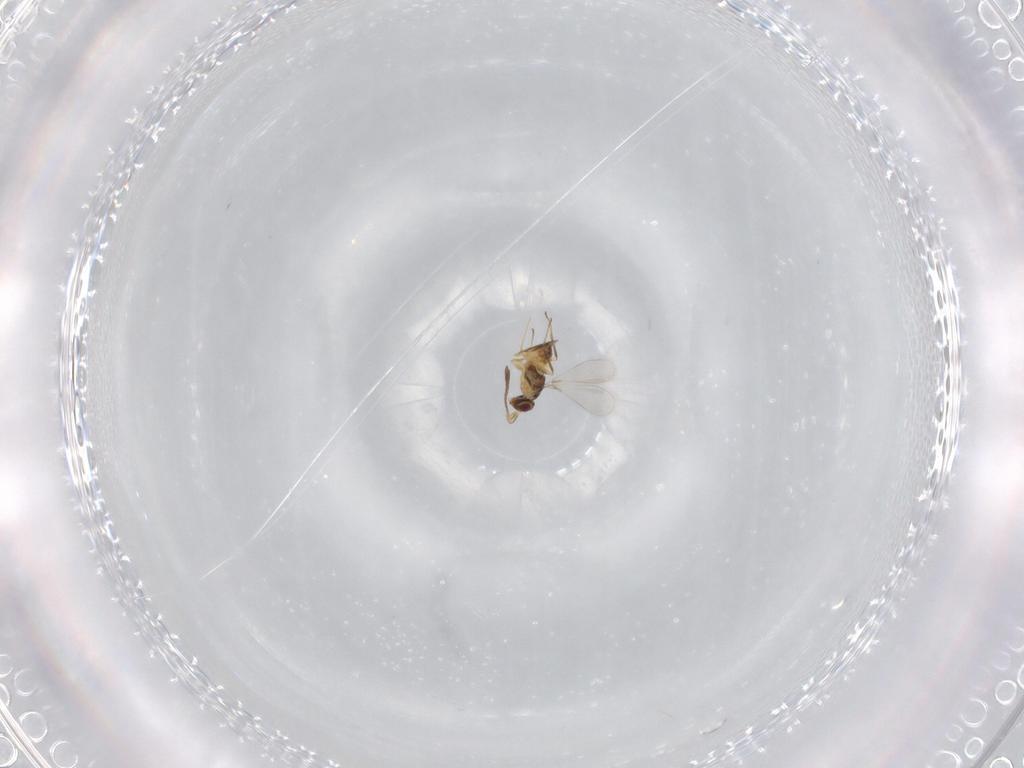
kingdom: Animalia
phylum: Arthropoda
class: Insecta
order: Hymenoptera
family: Mymaridae
